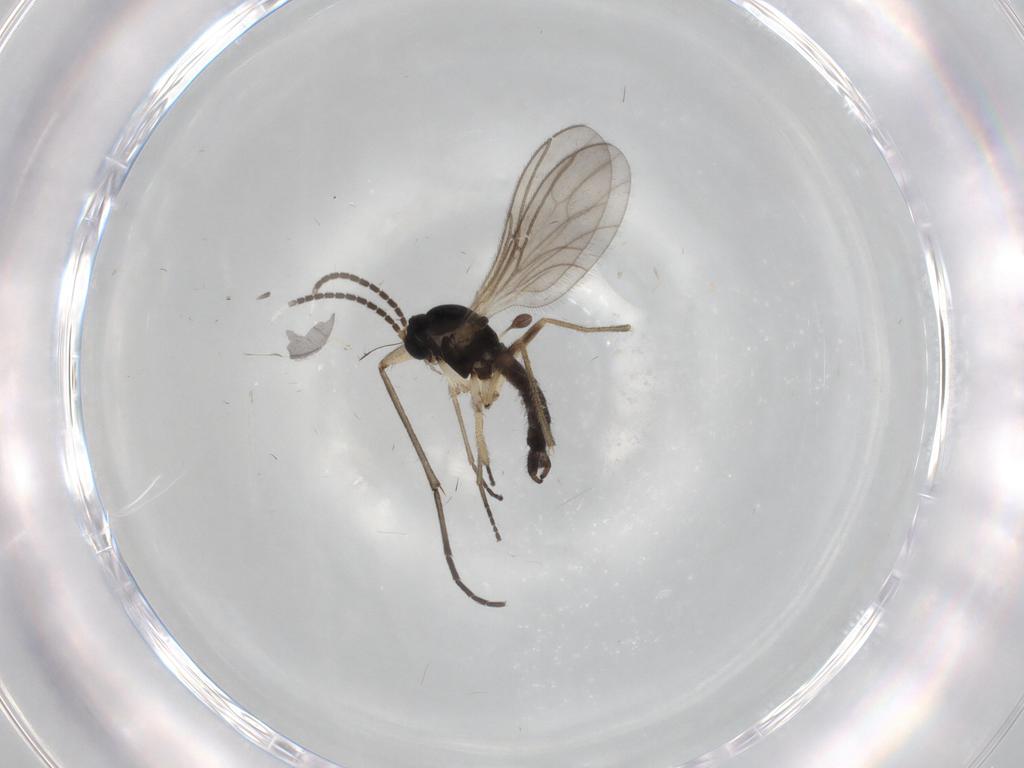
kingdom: Animalia
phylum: Arthropoda
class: Insecta
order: Diptera
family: Sciaridae
